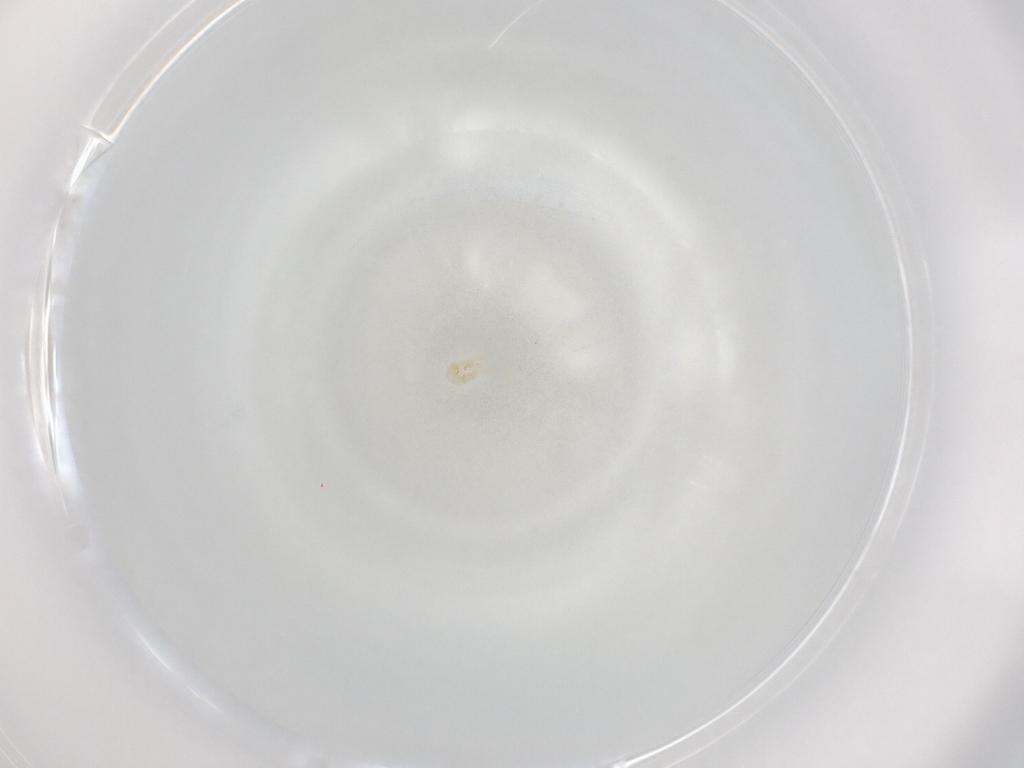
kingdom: Animalia
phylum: Arthropoda
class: Arachnida
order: Mesostigmata
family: Halolaelapidae
